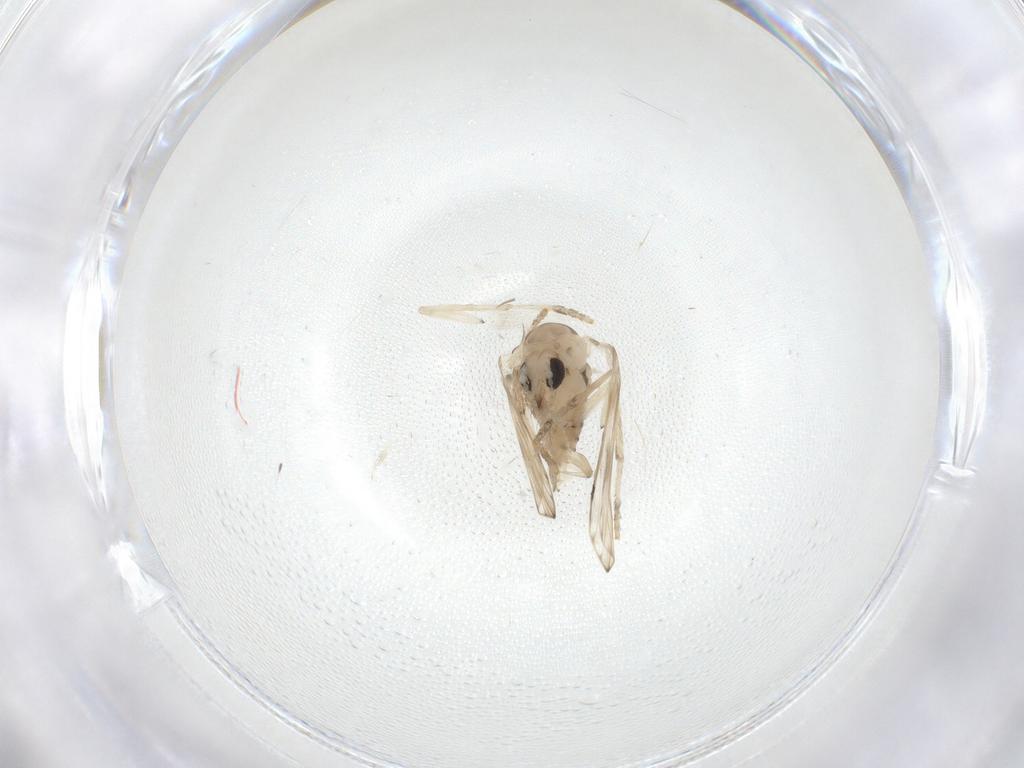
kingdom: Animalia
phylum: Arthropoda
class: Insecta
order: Diptera
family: Psychodidae
